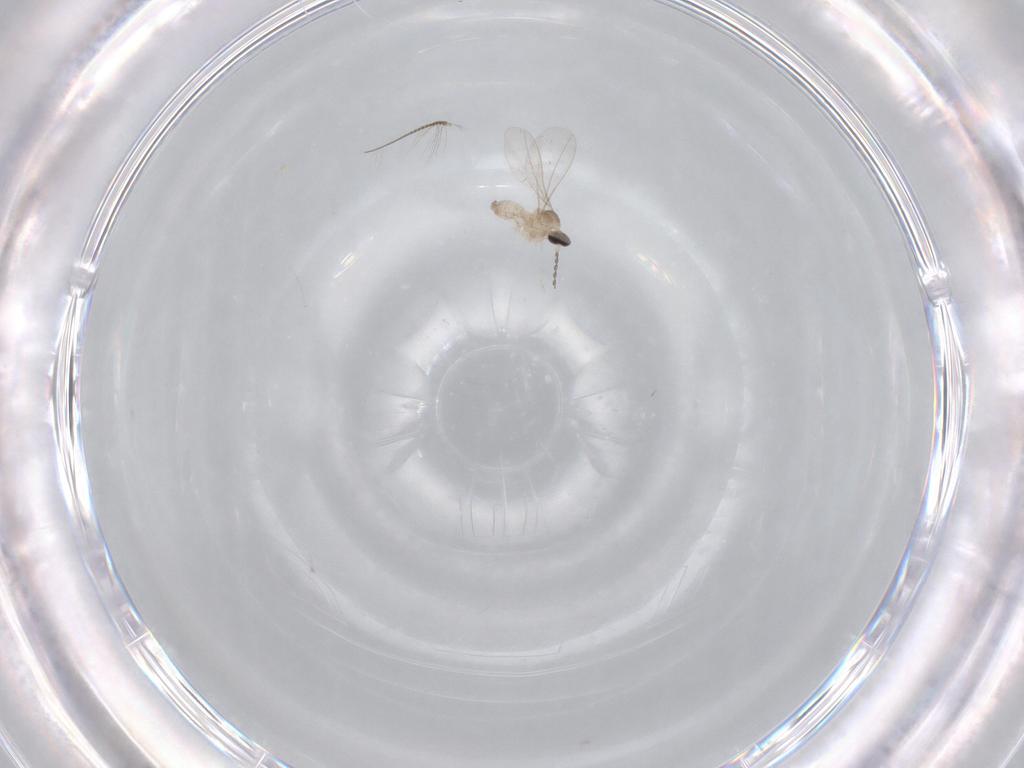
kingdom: Animalia
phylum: Arthropoda
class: Insecta
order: Diptera
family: Cecidomyiidae
